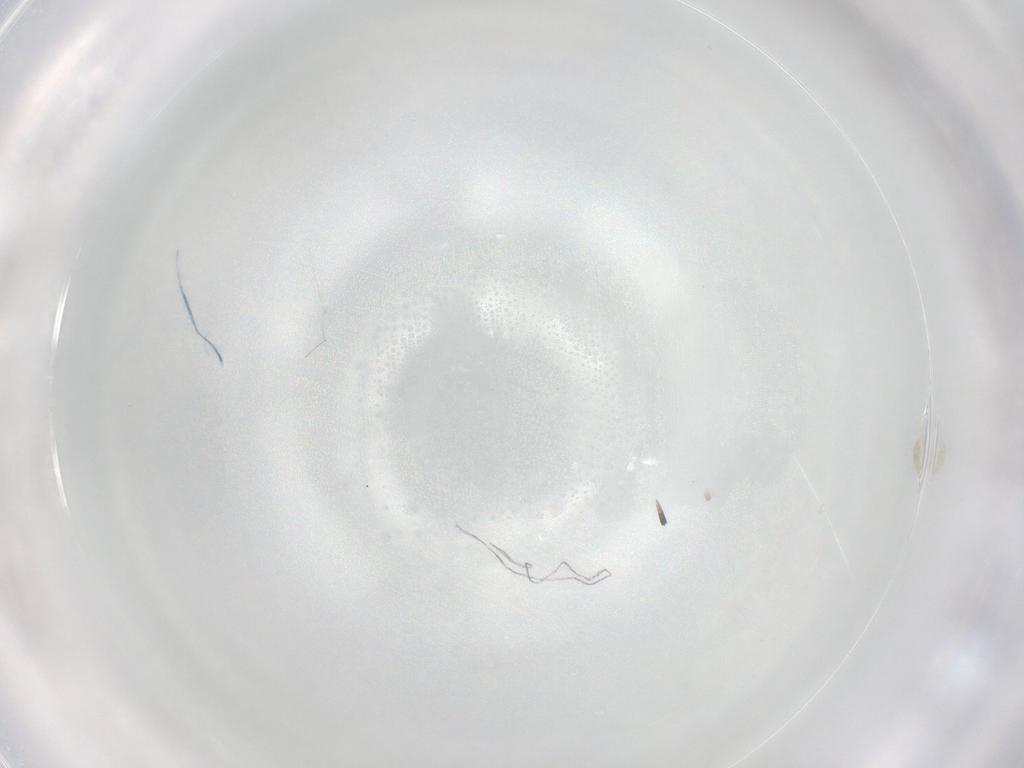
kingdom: Animalia
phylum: Arthropoda
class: Arachnida
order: Trombidiformes
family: Eupodidae
